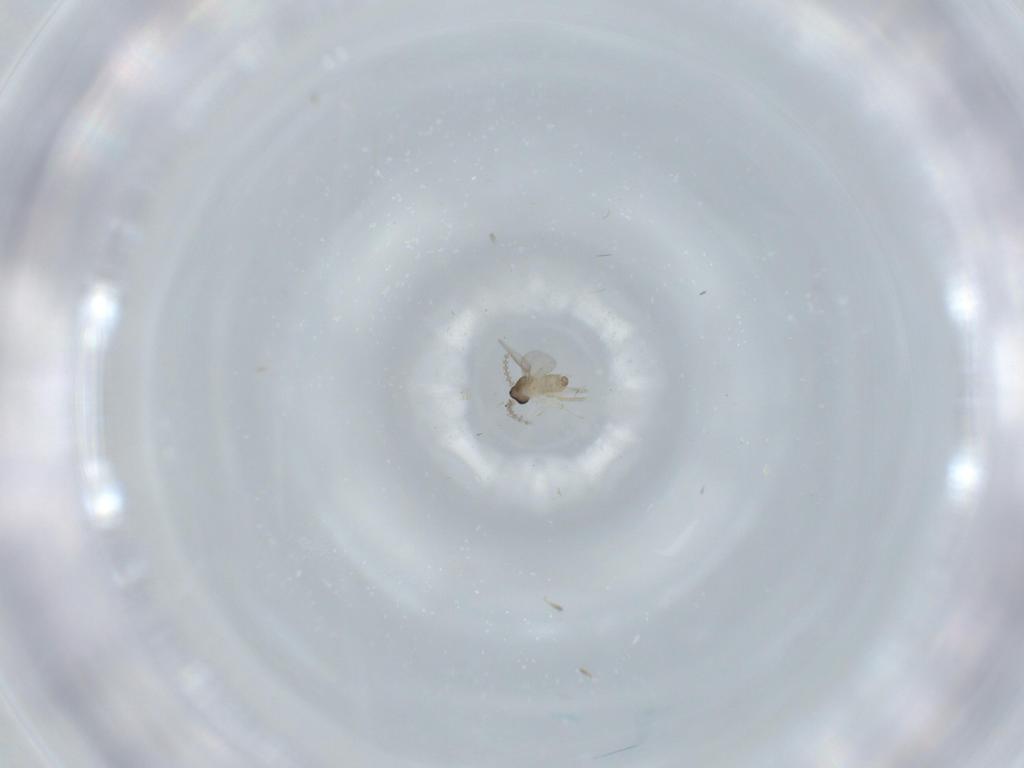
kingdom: Animalia
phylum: Arthropoda
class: Insecta
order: Diptera
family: Cecidomyiidae
